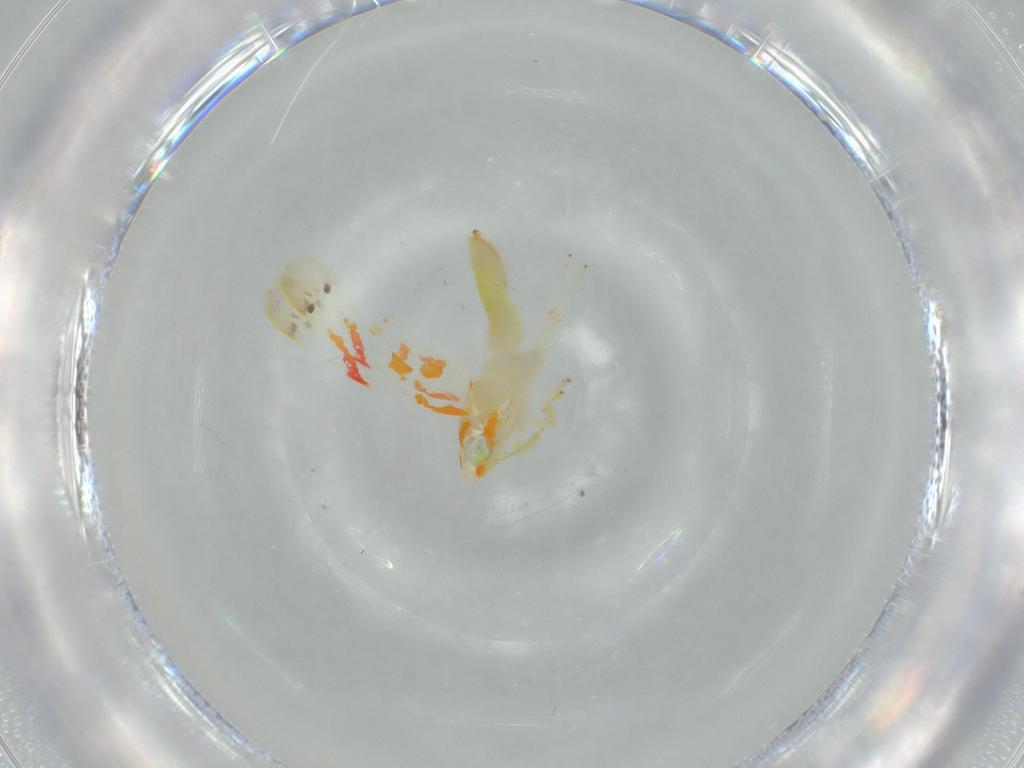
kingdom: Animalia
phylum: Arthropoda
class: Insecta
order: Hemiptera
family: Cicadellidae
